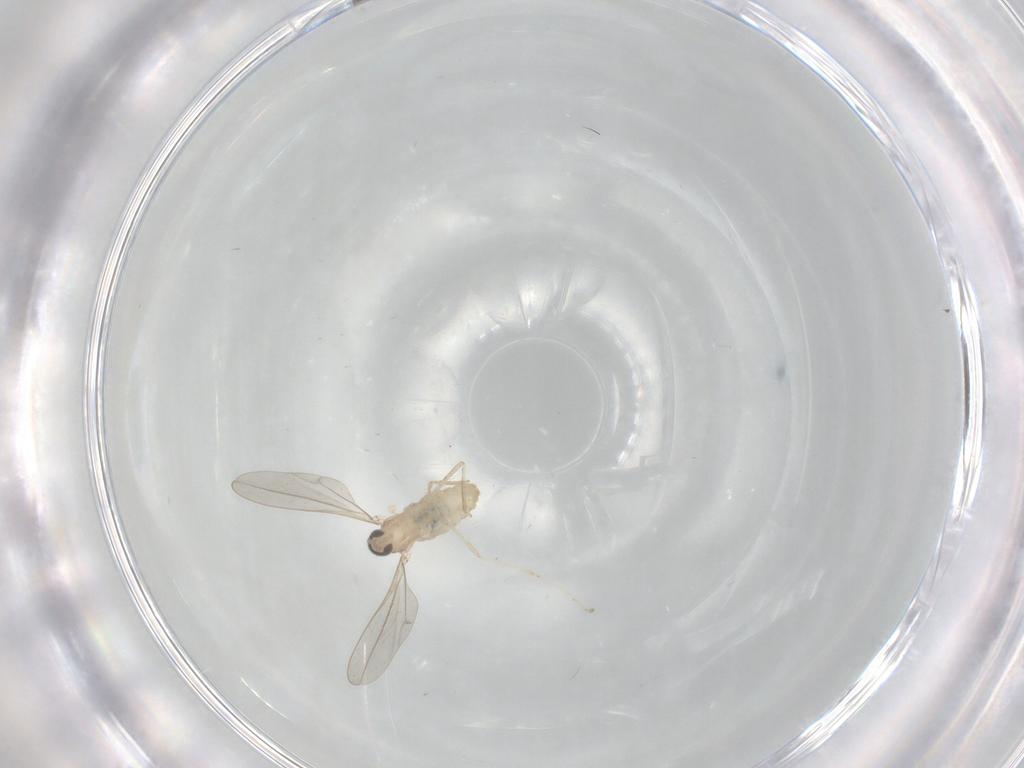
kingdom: Animalia
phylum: Arthropoda
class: Insecta
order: Diptera
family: Cecidomyiidae
